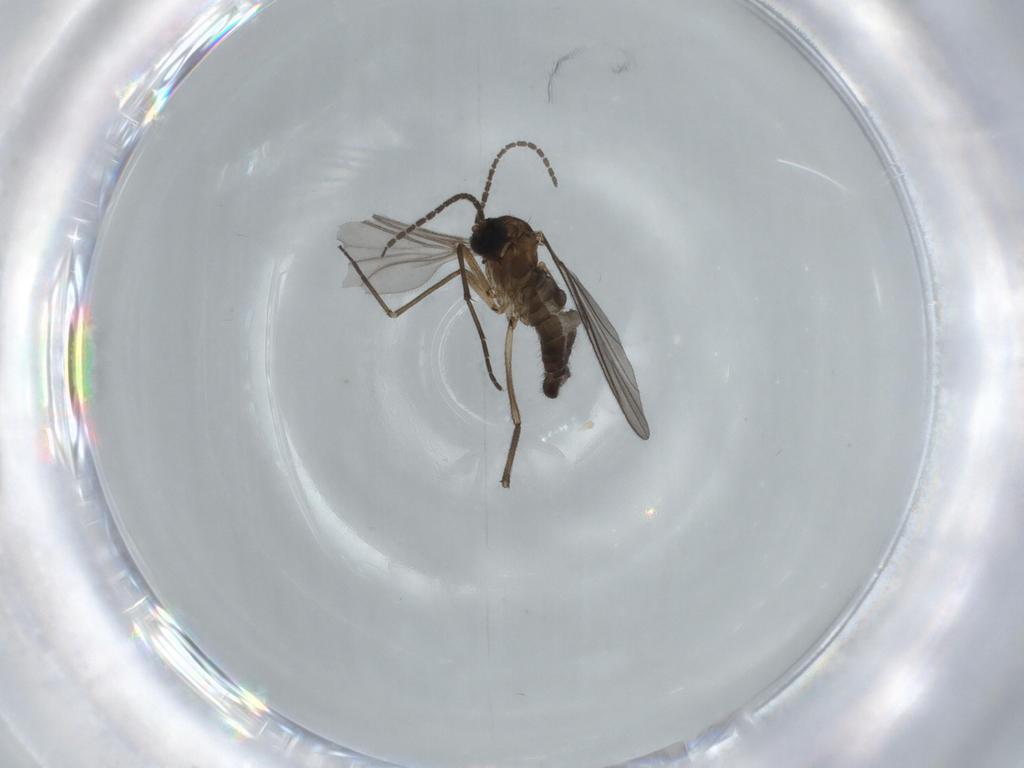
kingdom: Animalia
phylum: Arthropoda
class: Insecta
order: Diptera
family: Sciaridae
